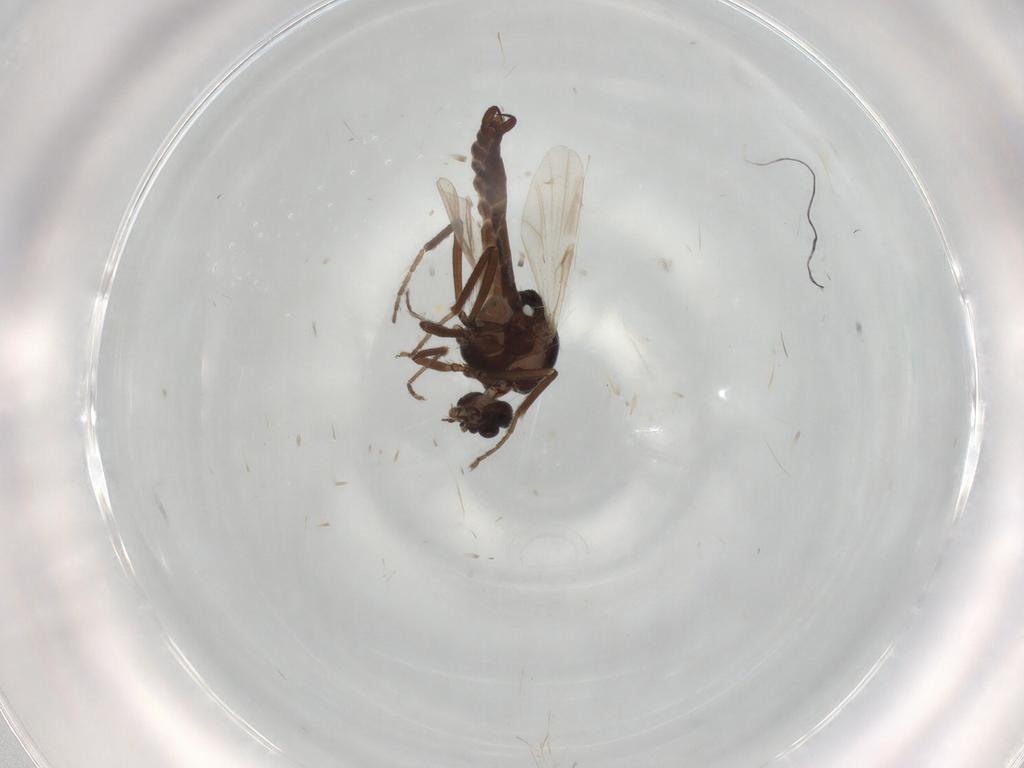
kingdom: Animalia
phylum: Arthropoda
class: Insecta
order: Diptera
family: Ceratopogonidae
